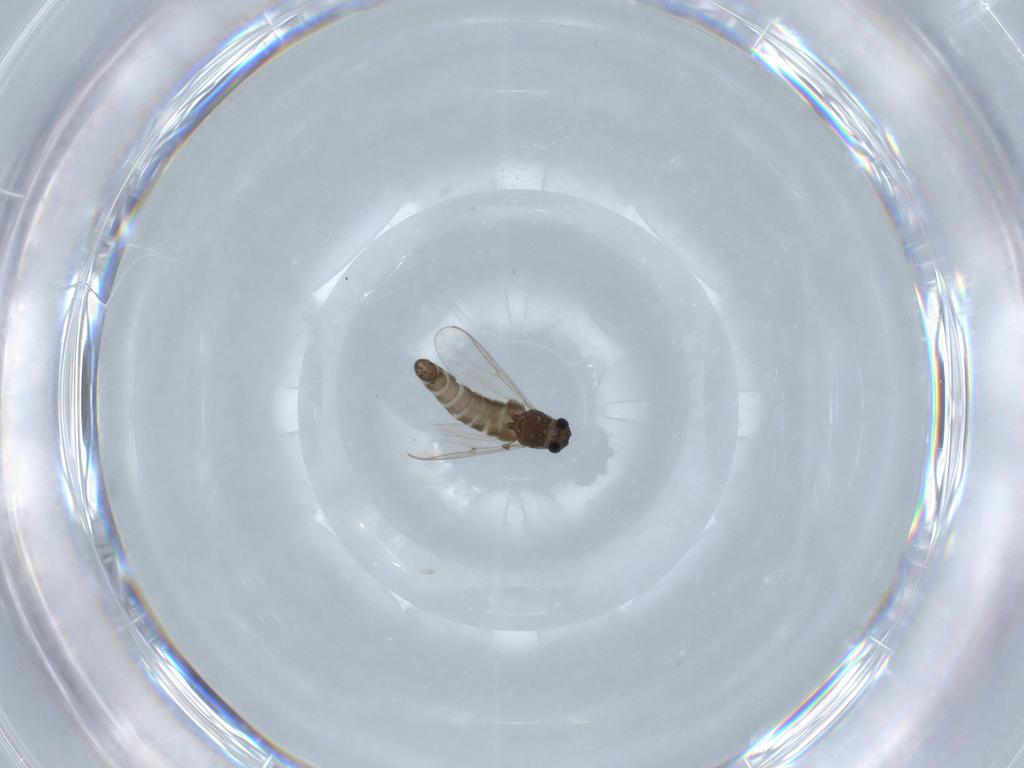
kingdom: Animalia
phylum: Arthropoda
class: Insecta
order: Diptera
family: Chironomidae
